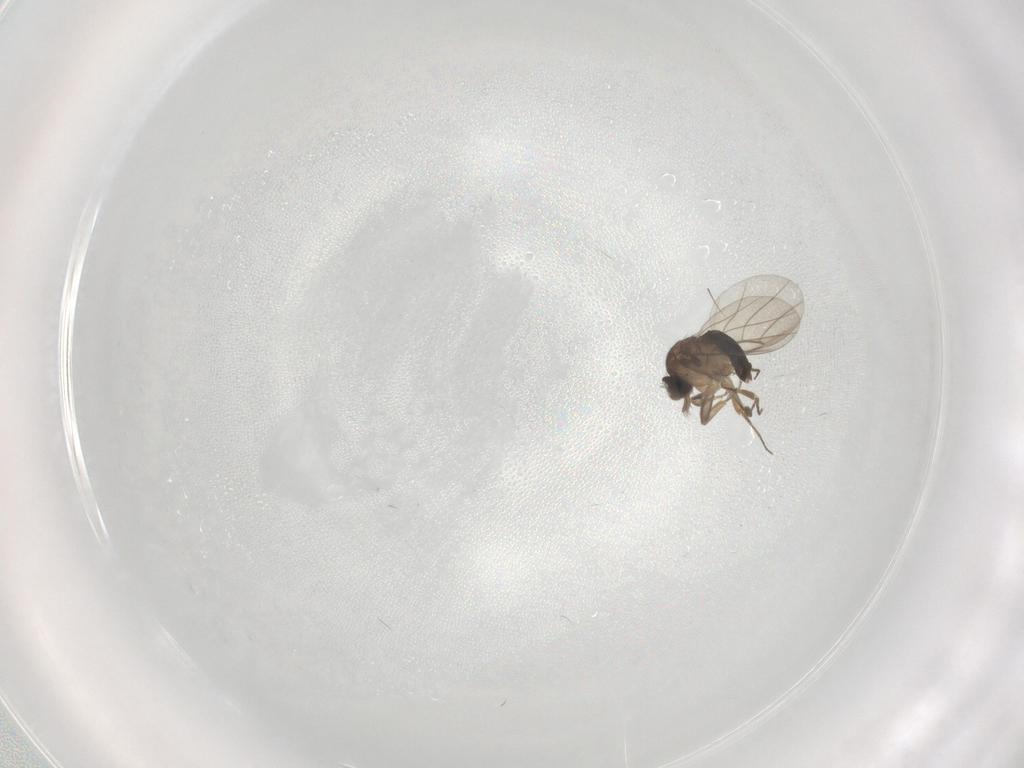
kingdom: Animalia
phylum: Arthropoda
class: Insecta
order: Diptera
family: Phoridae
